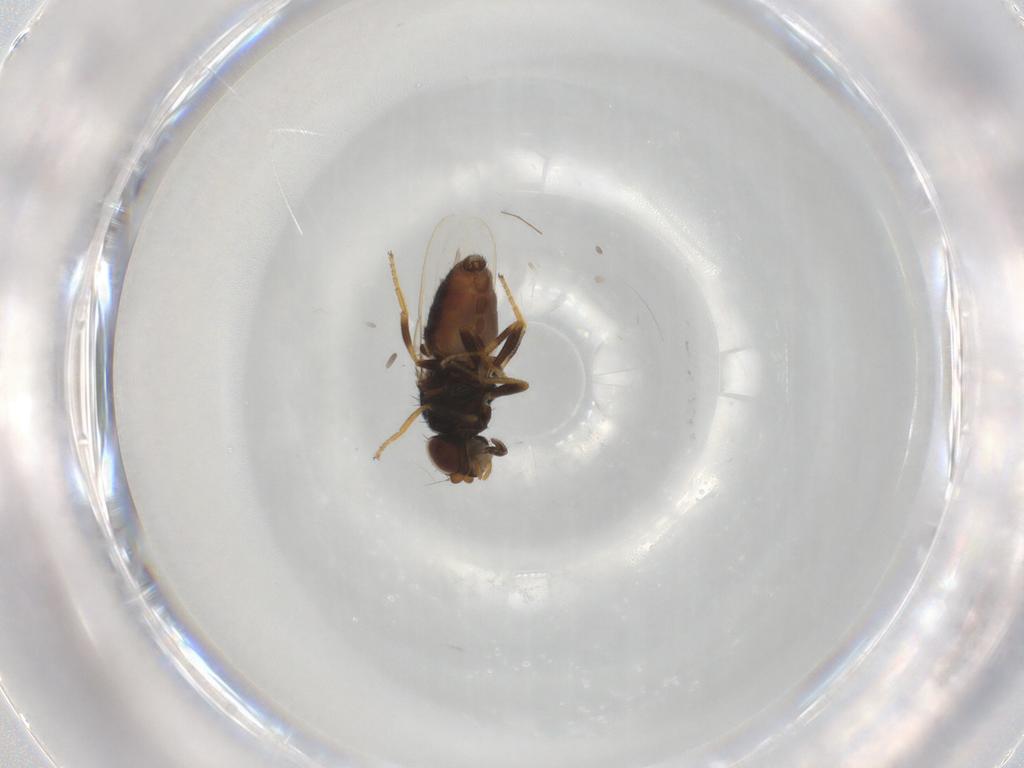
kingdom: Animalia
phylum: Arthropoda
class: Insecta
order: Diptera
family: Chloropidae
